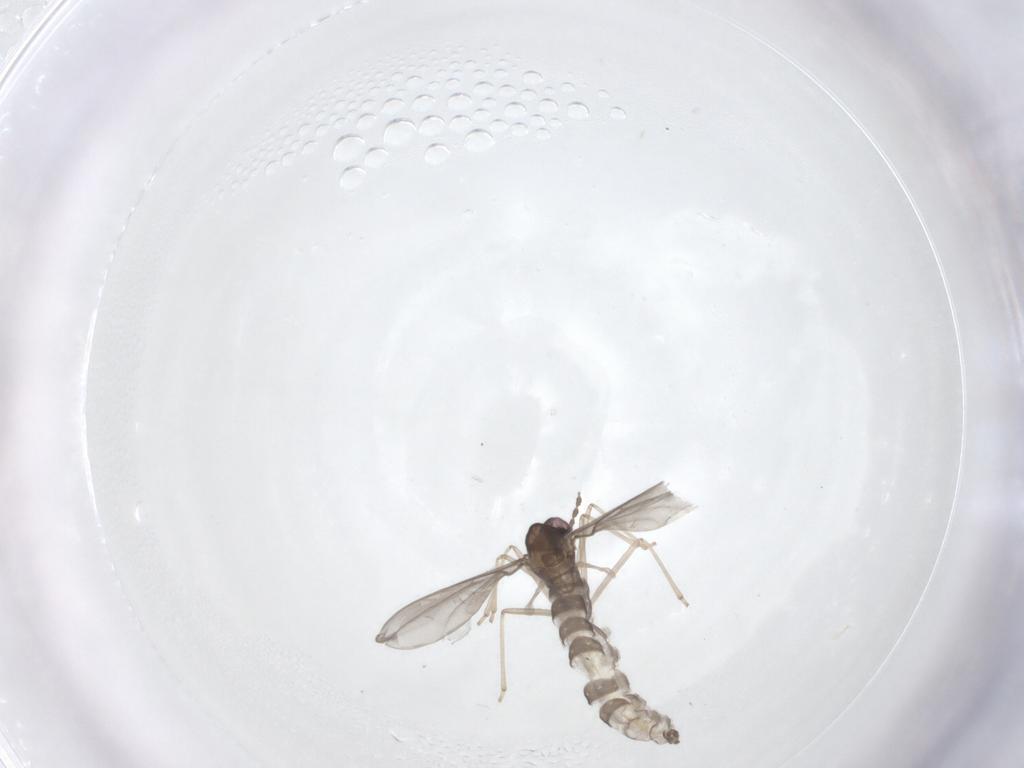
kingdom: Animalia
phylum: Arthropoda
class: Insecta
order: Diptera
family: Cecidomyiidae
